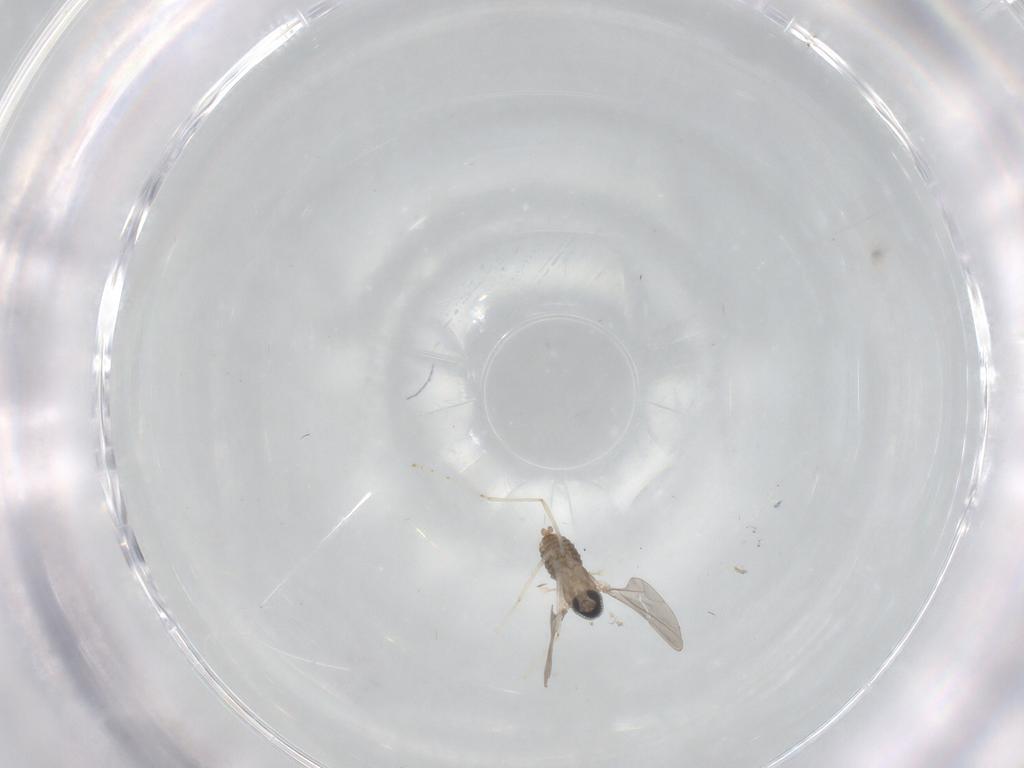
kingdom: Animalia
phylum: Arthropoda
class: Insecta
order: Diptera
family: Cecidomyiidae
